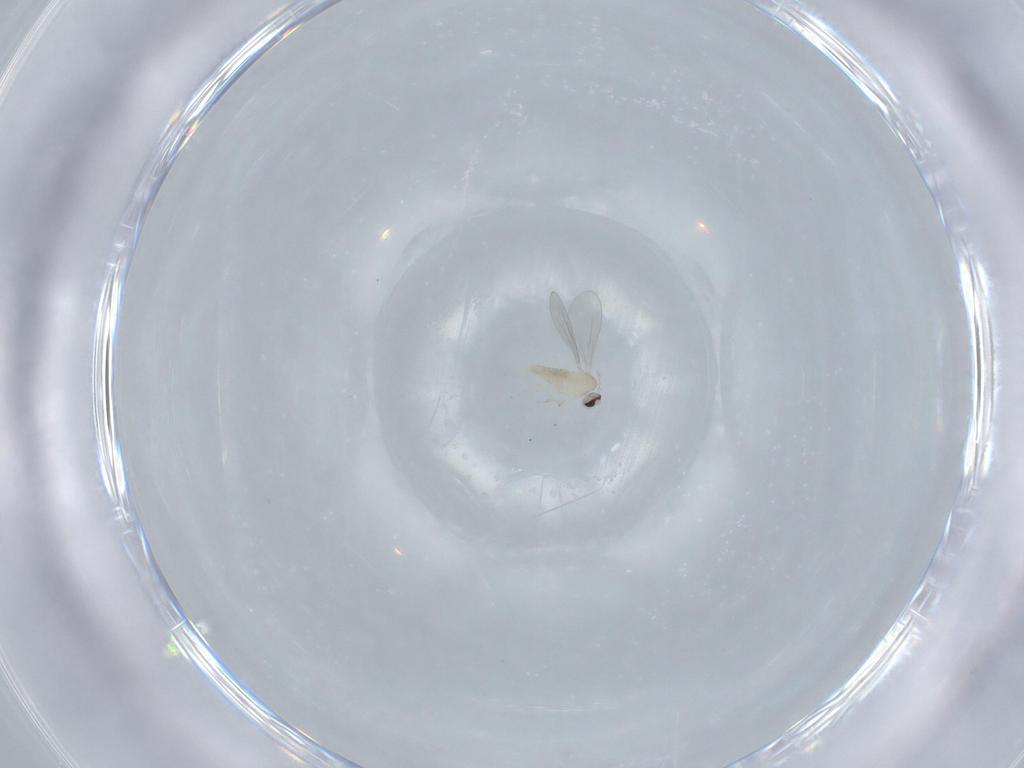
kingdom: Animalia
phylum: Arthropoda
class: Insecta
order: Diptera
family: Cecidomyiidae
